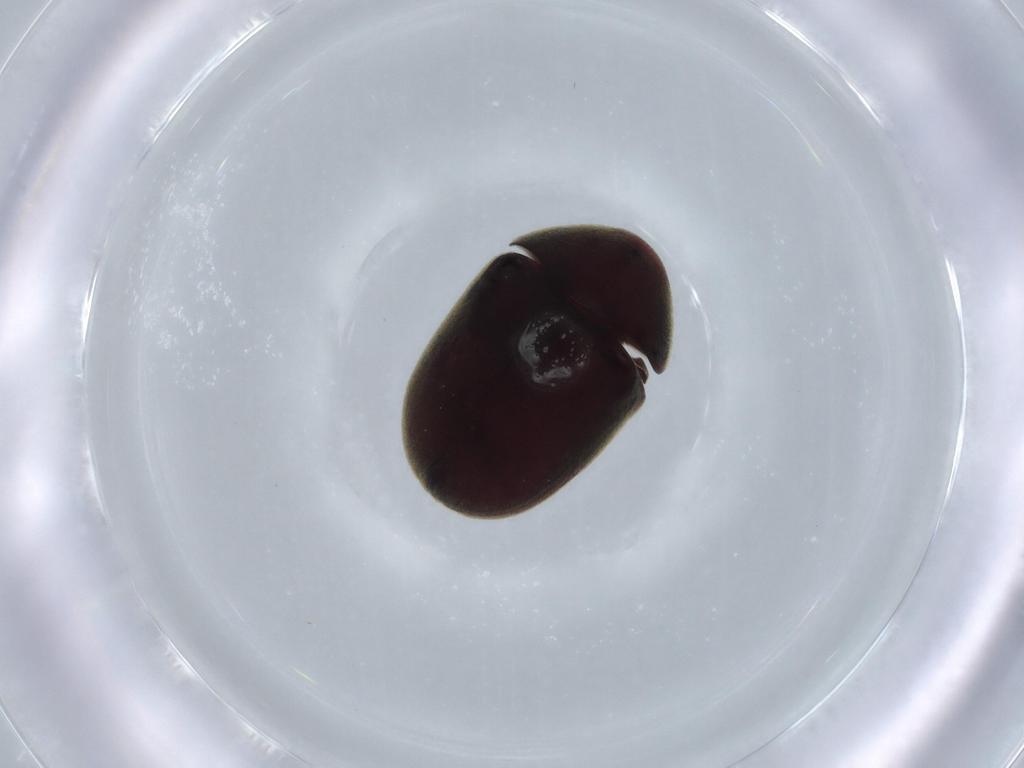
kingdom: Animalia
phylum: Arthropoda
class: Insecta
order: Coleoptera
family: Ptinidae
